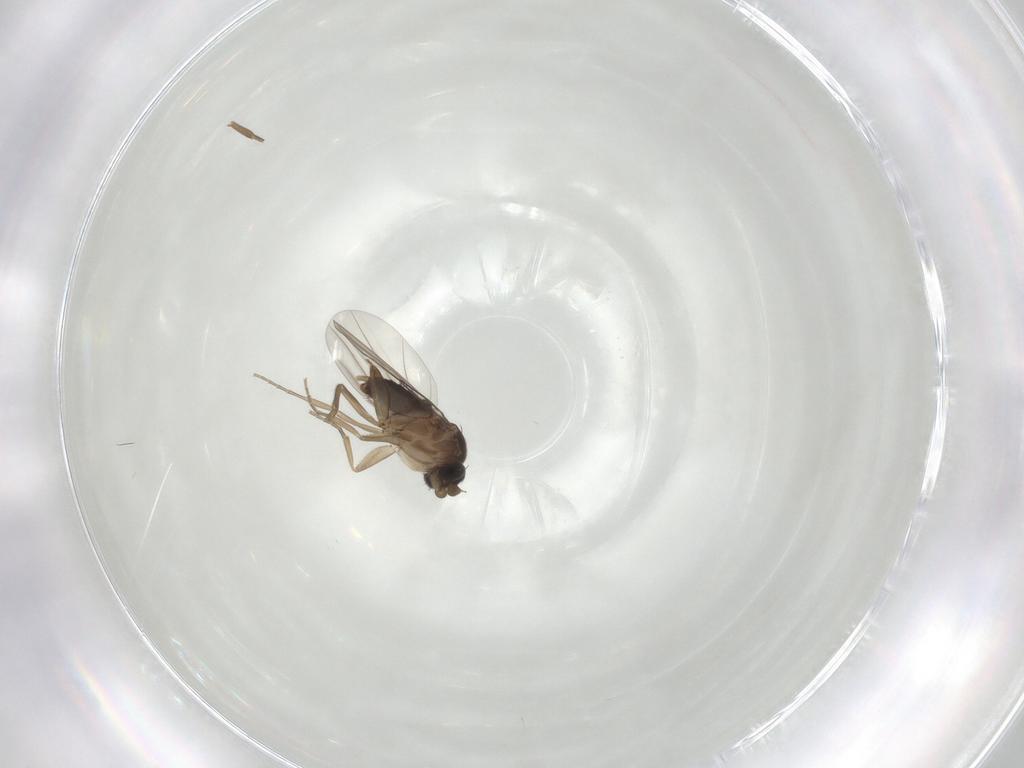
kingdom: Animalia
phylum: Arthropoda
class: Insecta
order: Diptera
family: Phoridae
